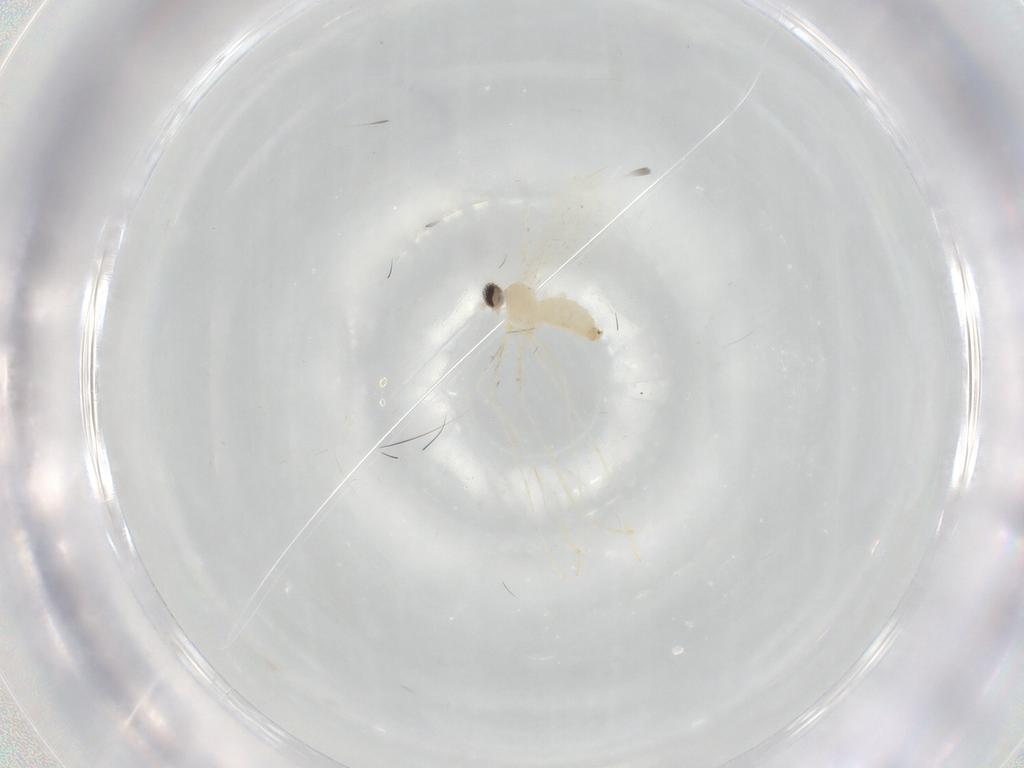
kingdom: Animalia
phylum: Arthropoda
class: Insecta
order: Diptera
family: Cecidomyiidae
